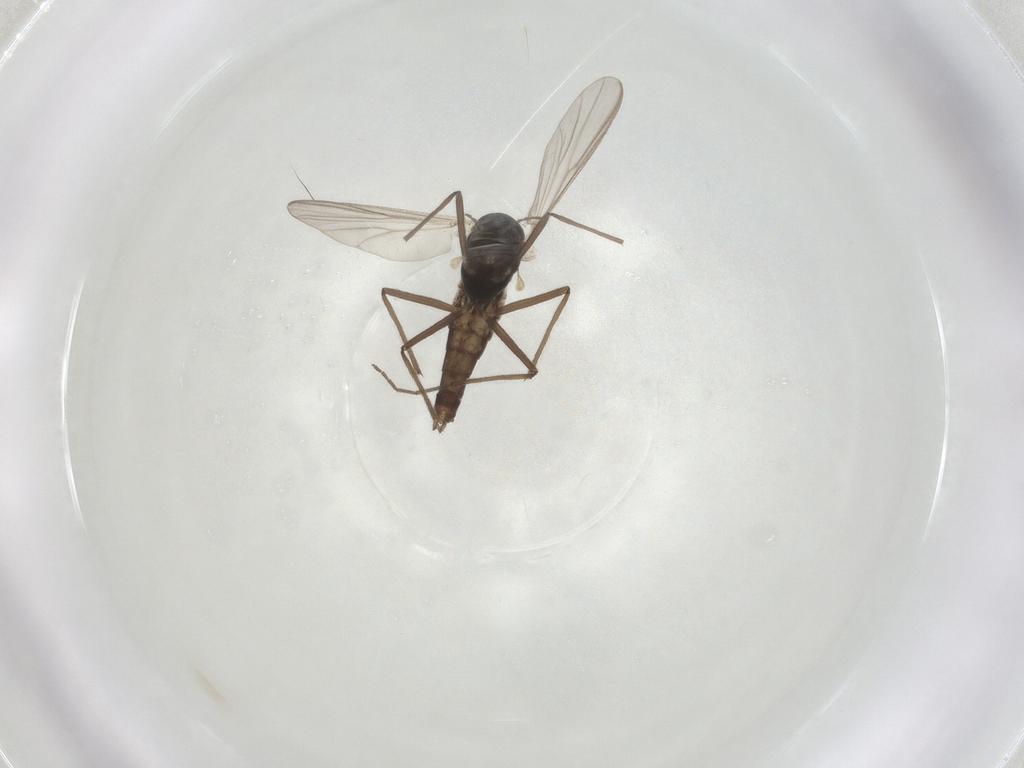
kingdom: Animalia
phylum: Arthropoda
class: Insecta
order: Diptera
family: Chironomidae
